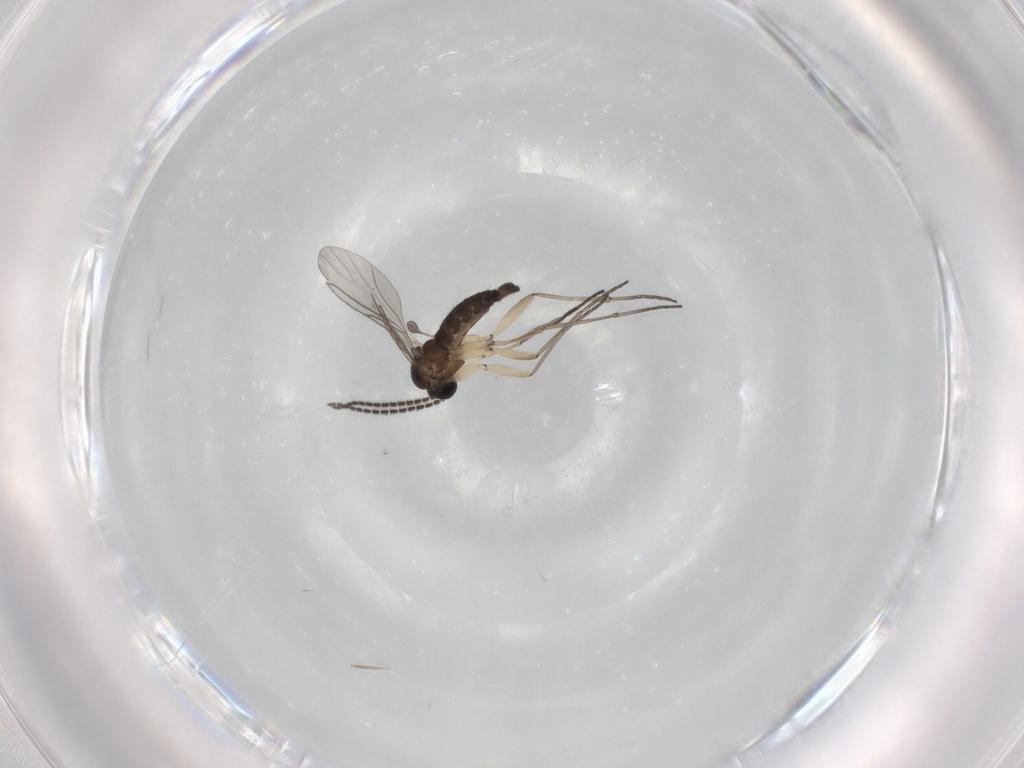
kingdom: Animalia
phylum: Arthropoda
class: Insecta
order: Diptera
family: Sciaridae
